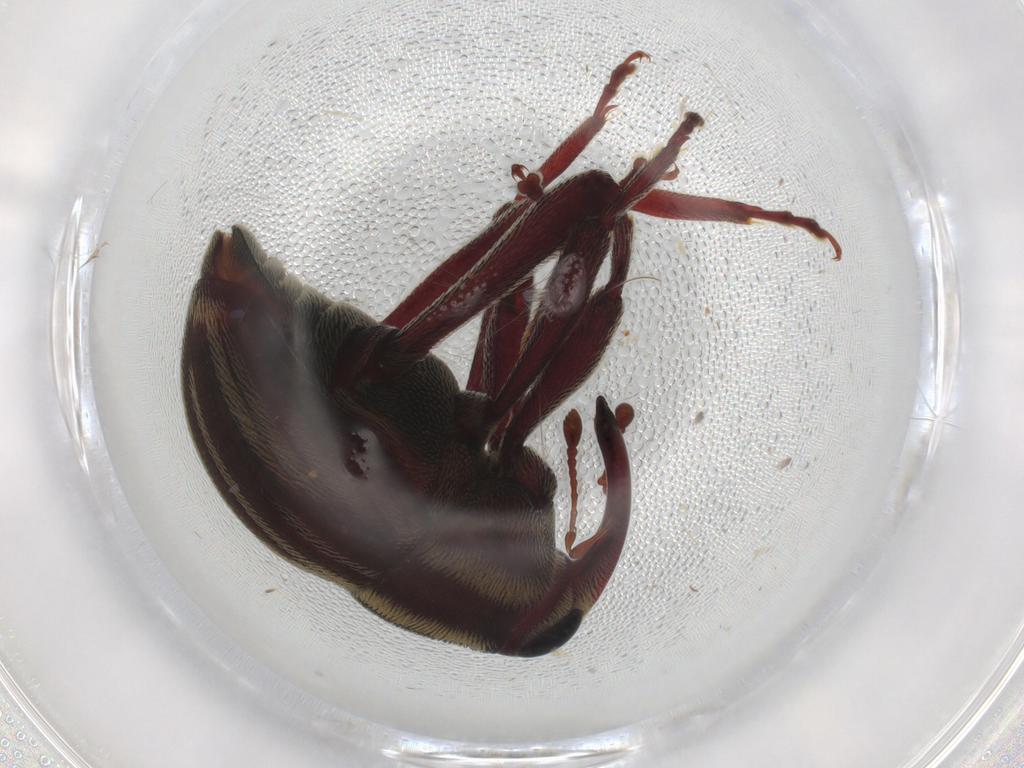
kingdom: Animalia
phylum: Arthropoda
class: Insecta
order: Coleoptera
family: Curculionidae
